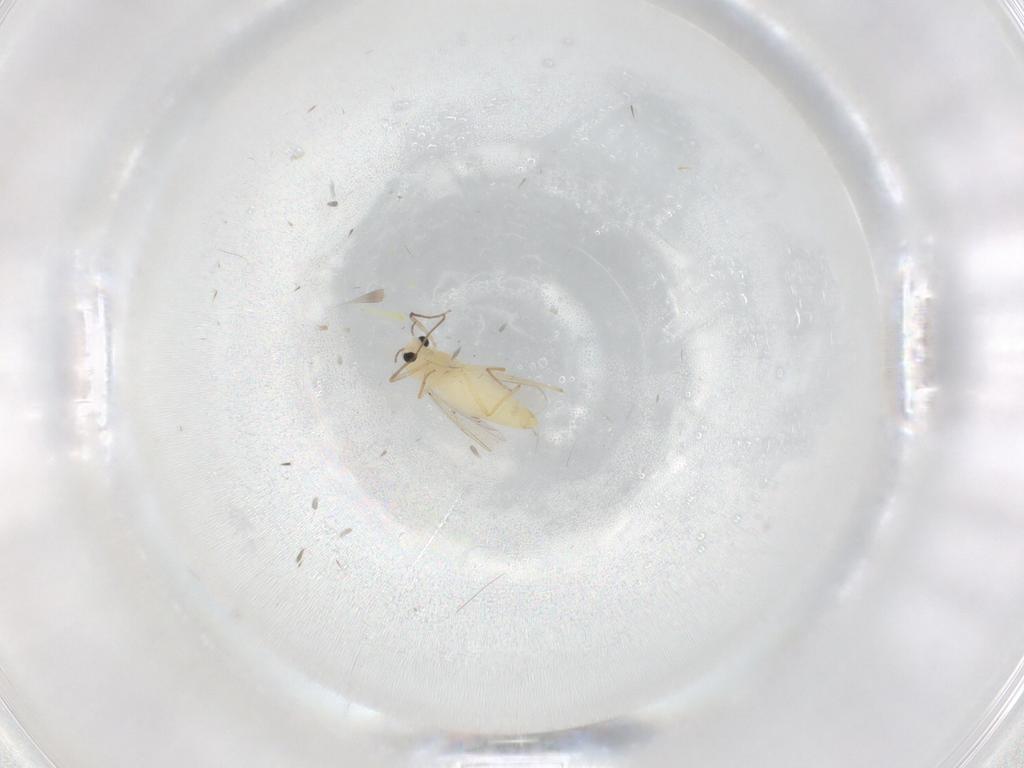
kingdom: Animalia
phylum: Arthropoda
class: Insecta
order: Diptera
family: Chironomidae
